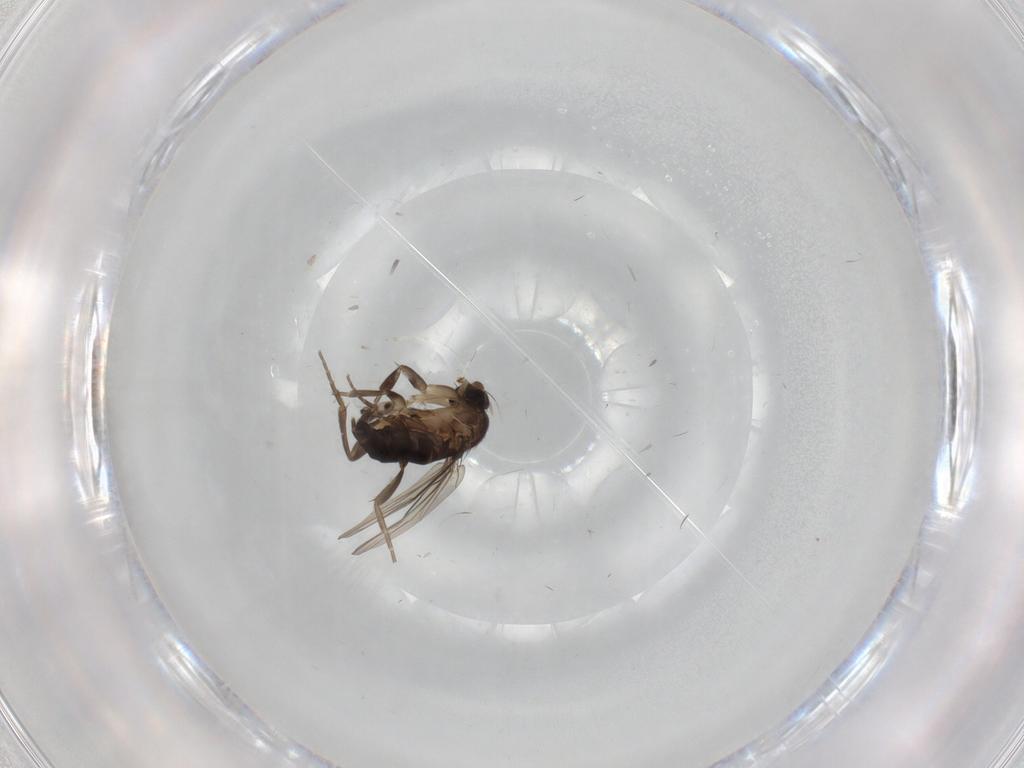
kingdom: Animalia
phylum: Arthropoda
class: Insecta
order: Diptera
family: Phoridae
